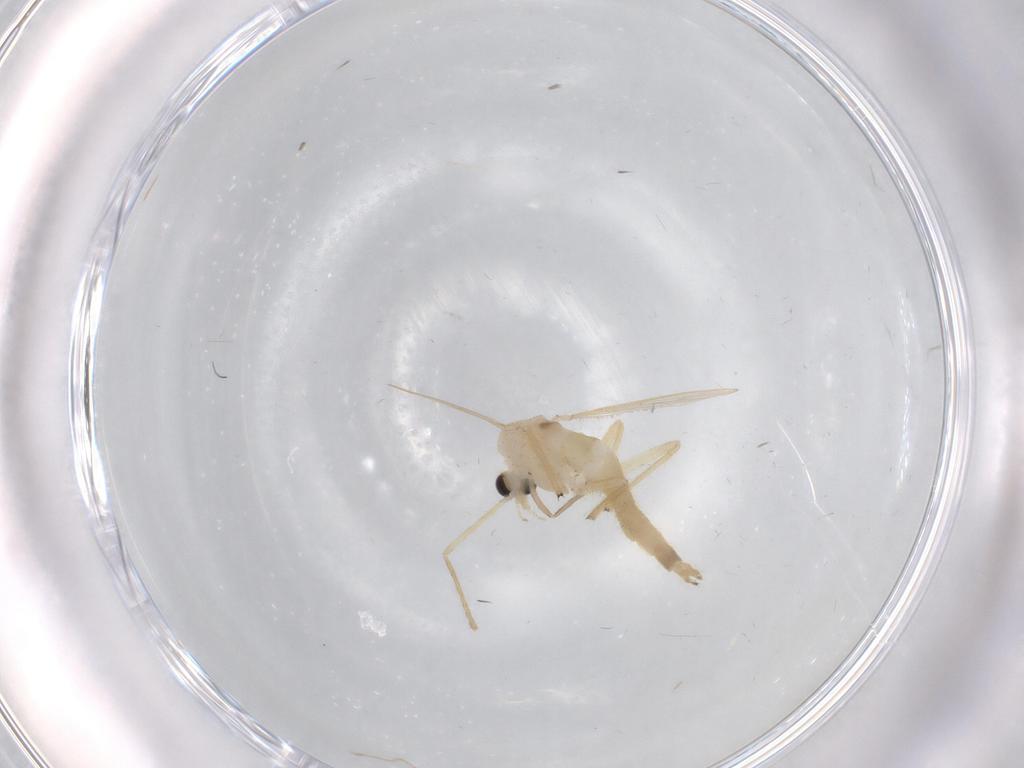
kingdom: Animalia
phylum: Arthropoda
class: Insecta
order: Diptera
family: Chironomidae
